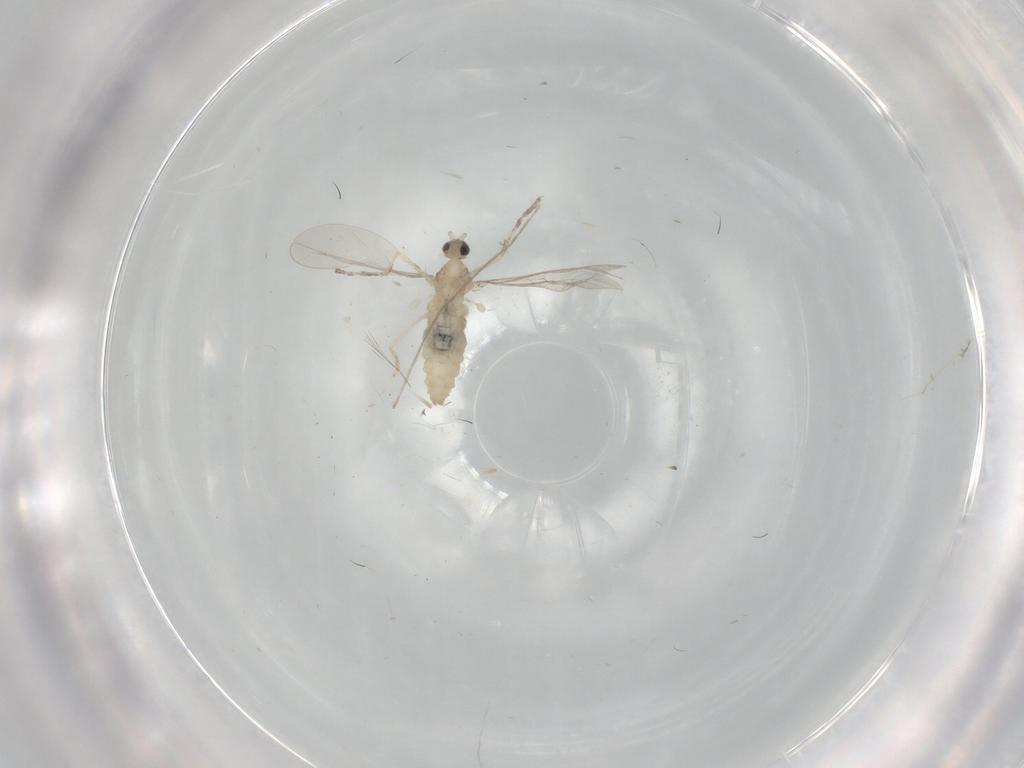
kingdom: Animalia
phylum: Arthropoda
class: Insecta
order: Diptera
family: Cecidomyiidae
